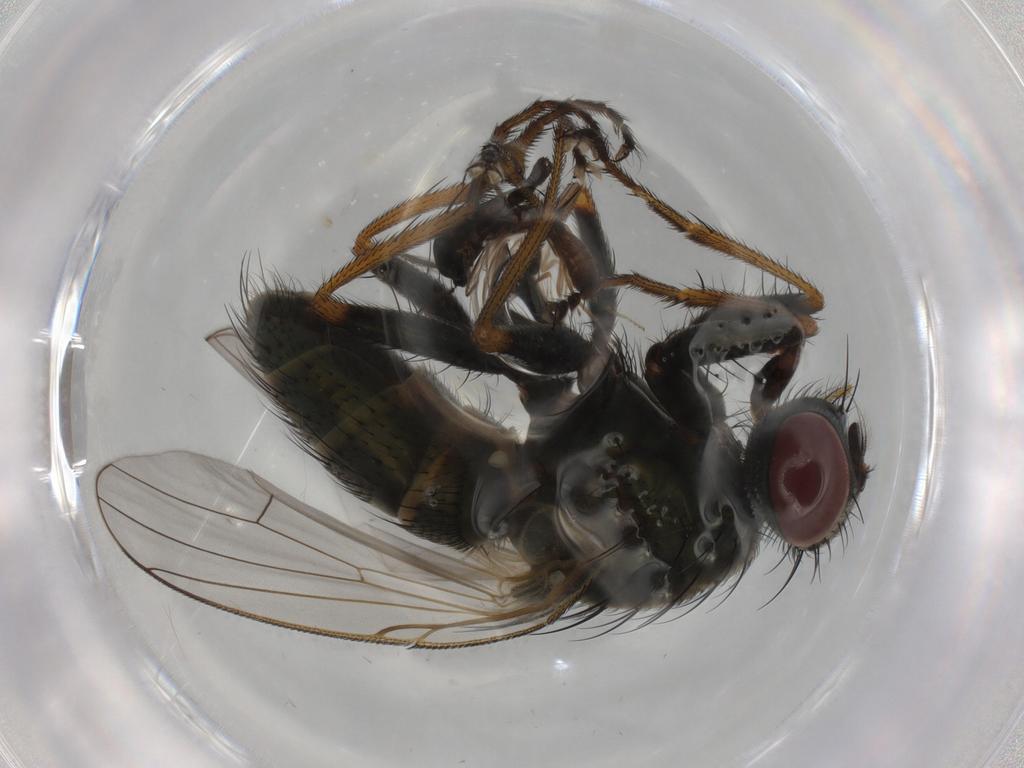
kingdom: Animalia
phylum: Arthropoda
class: Insecta
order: Diptera
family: Muscidae
